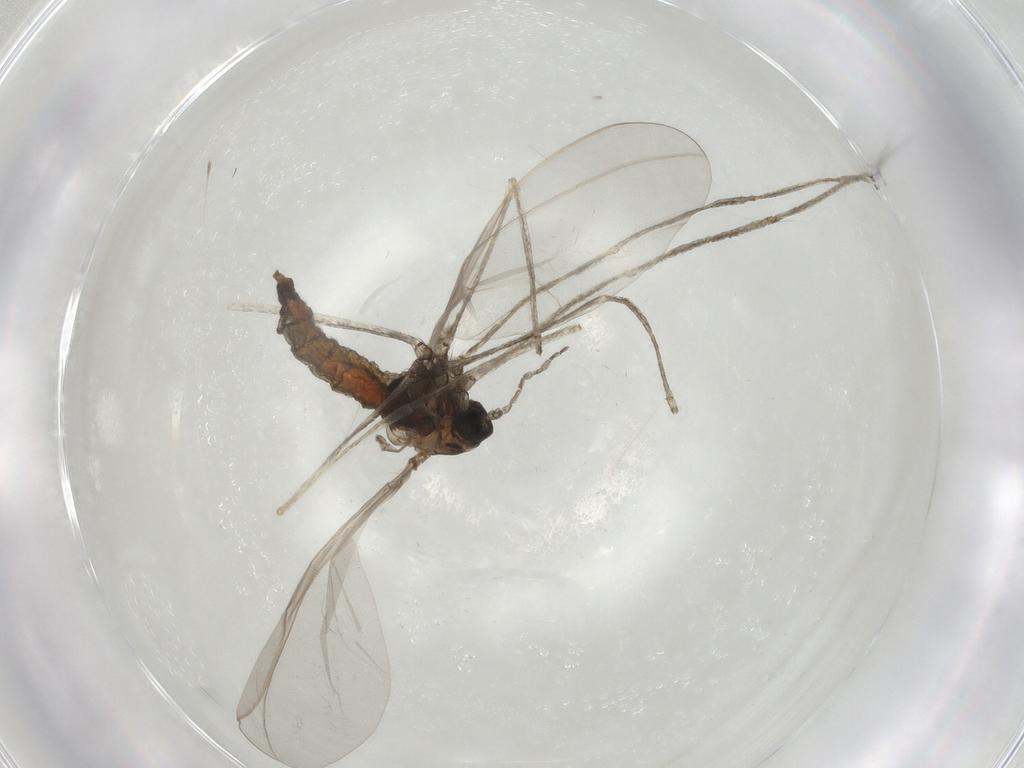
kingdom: Animalia
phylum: Arthropoda
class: Insecta
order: Diptera
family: Cecidomyiidae
